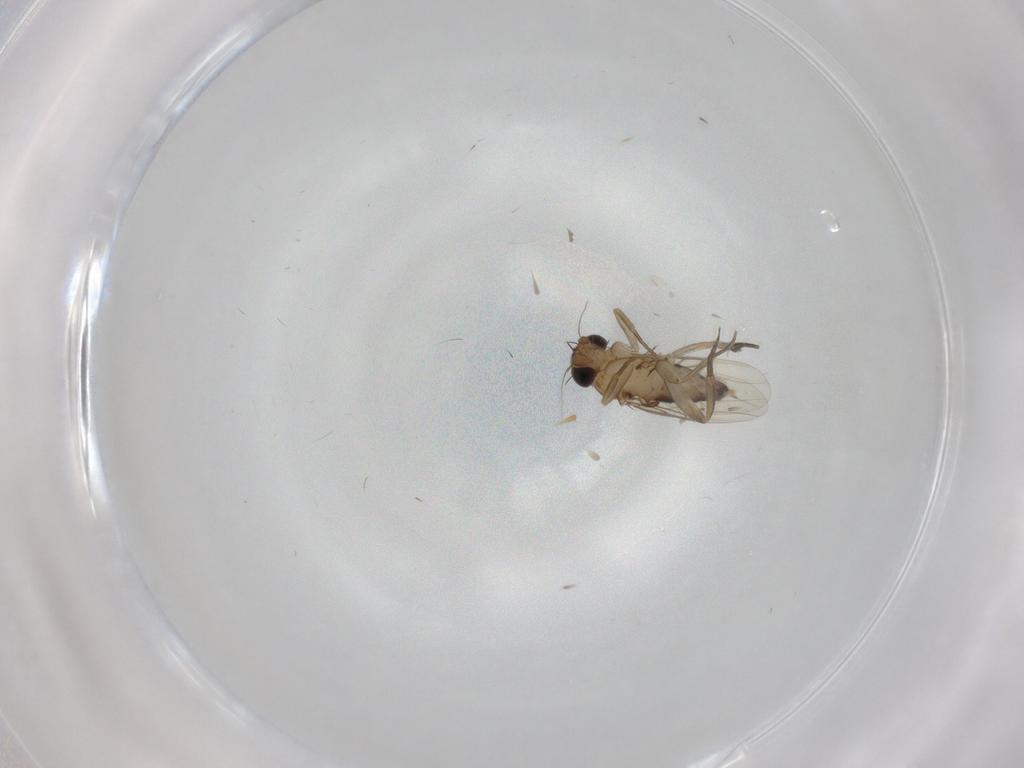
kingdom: Animalia
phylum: Arthropoda
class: Insecta
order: Diptera
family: Phoridae
